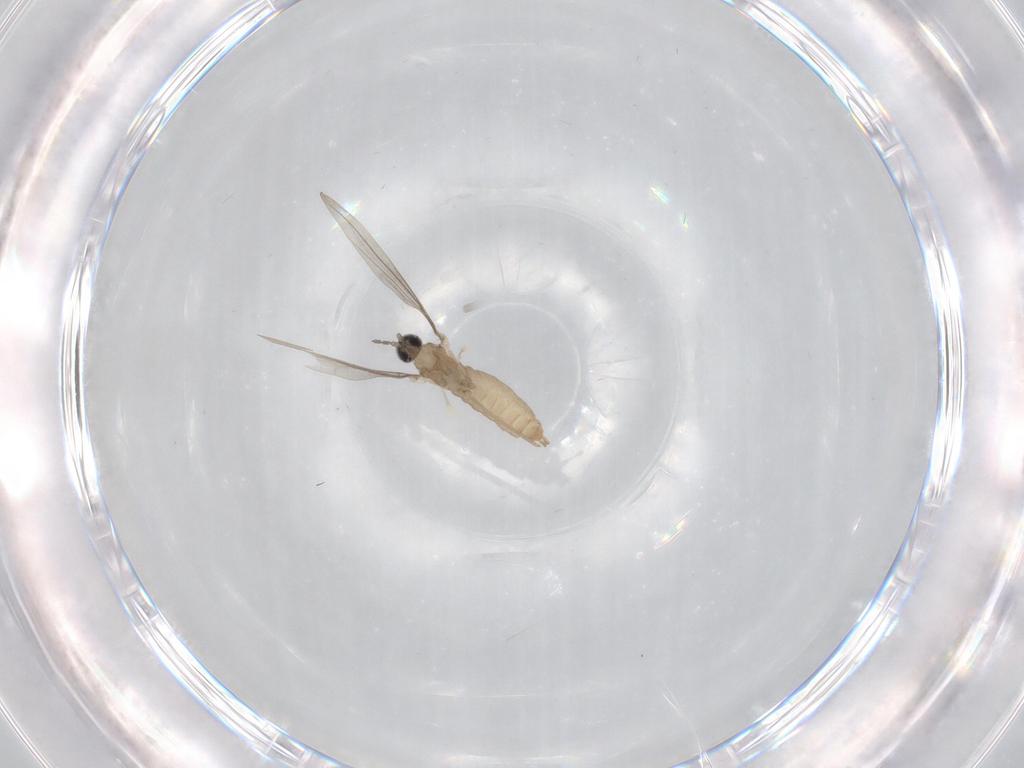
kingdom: Animalia
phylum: Arthropoda
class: Insecta
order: Diptera
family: Cecidomyiidae
